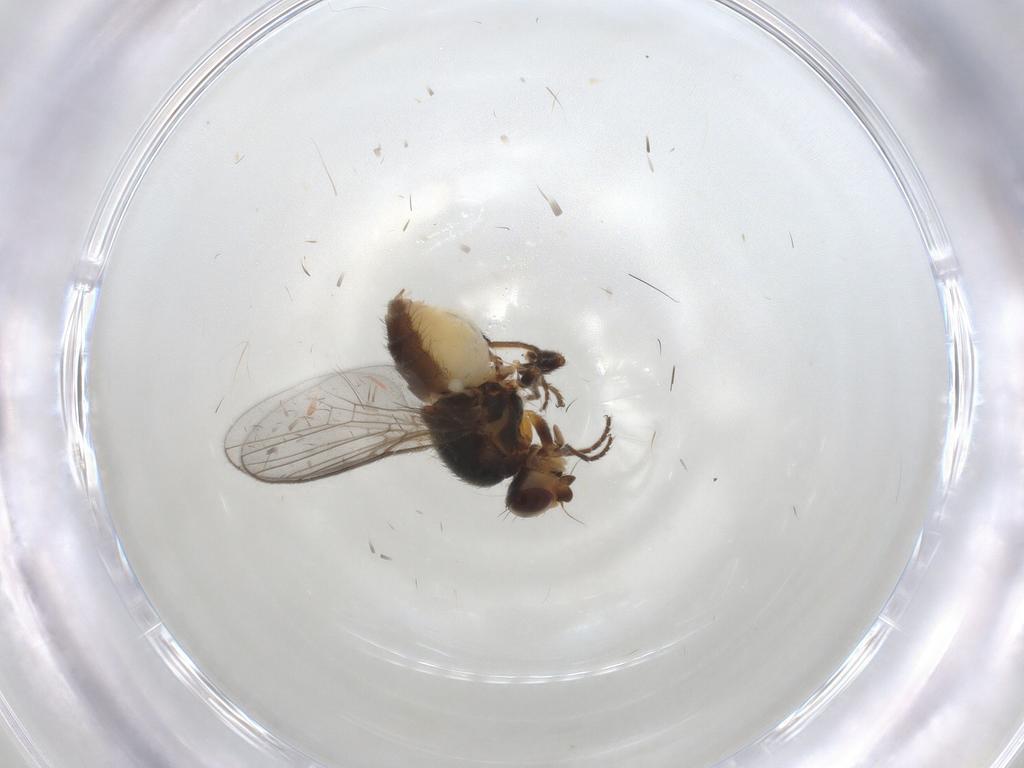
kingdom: Animalia
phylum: Arthropoda
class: Insecta
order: Diptera
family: Chloropidae
